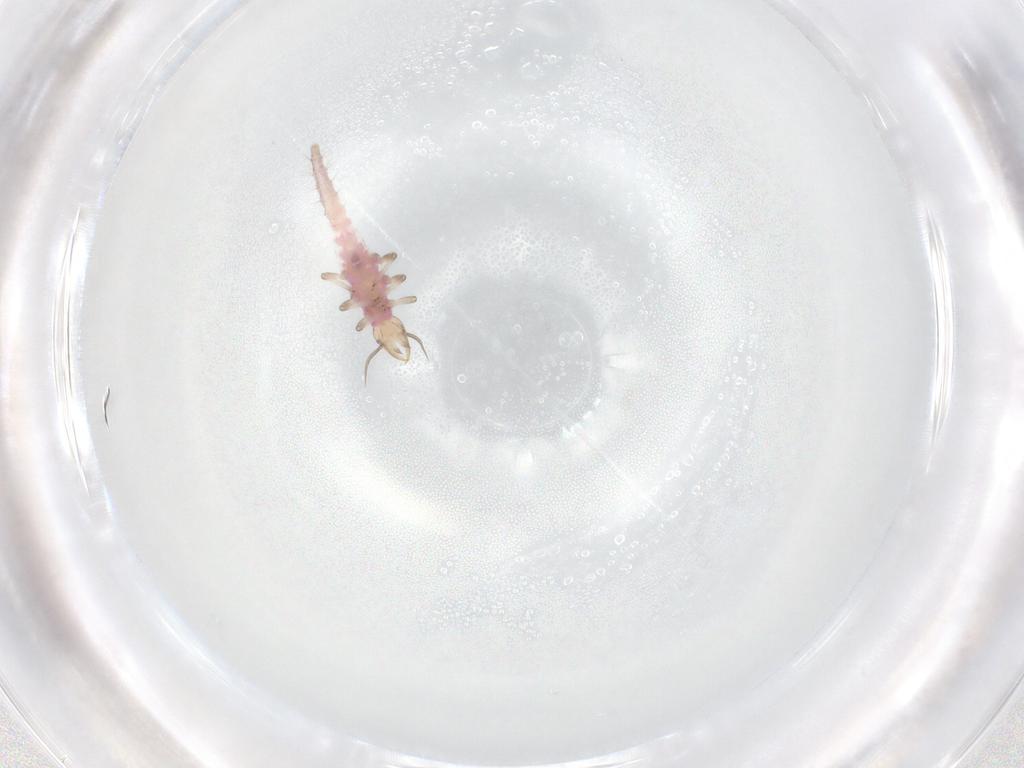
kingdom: Animalia
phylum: Arthropoda
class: Insecta
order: Neuroptera
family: Hemerobiidae
